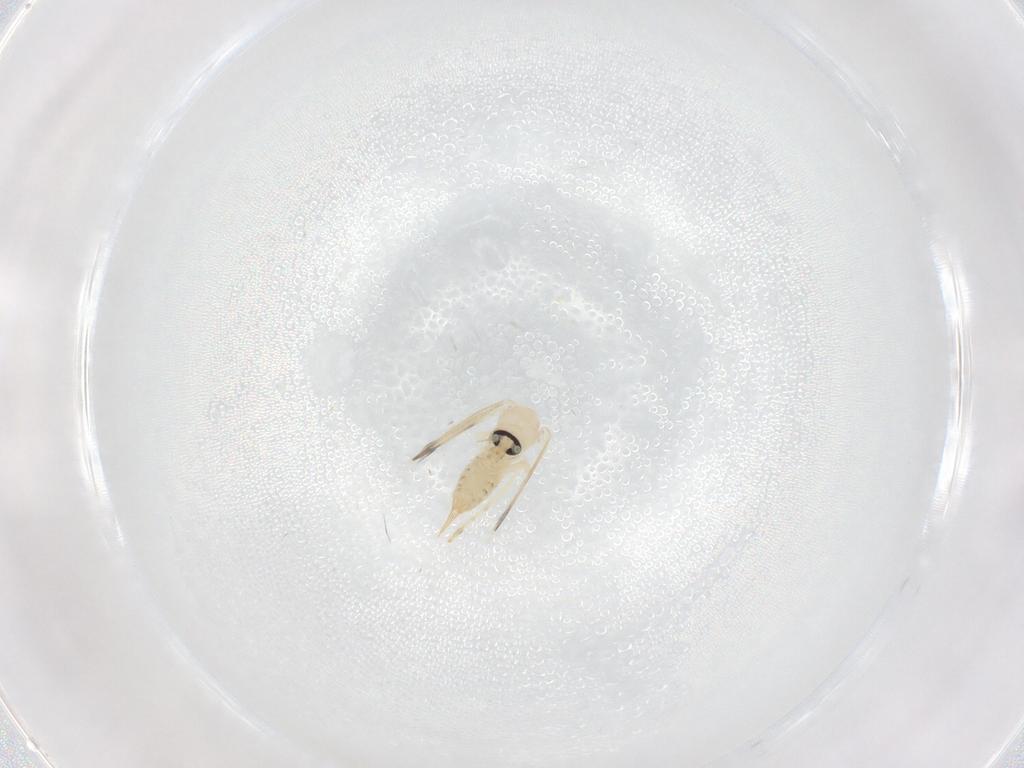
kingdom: Animalia
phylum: Arthropoda
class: Insecta
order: Diptera
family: Psychodidae
